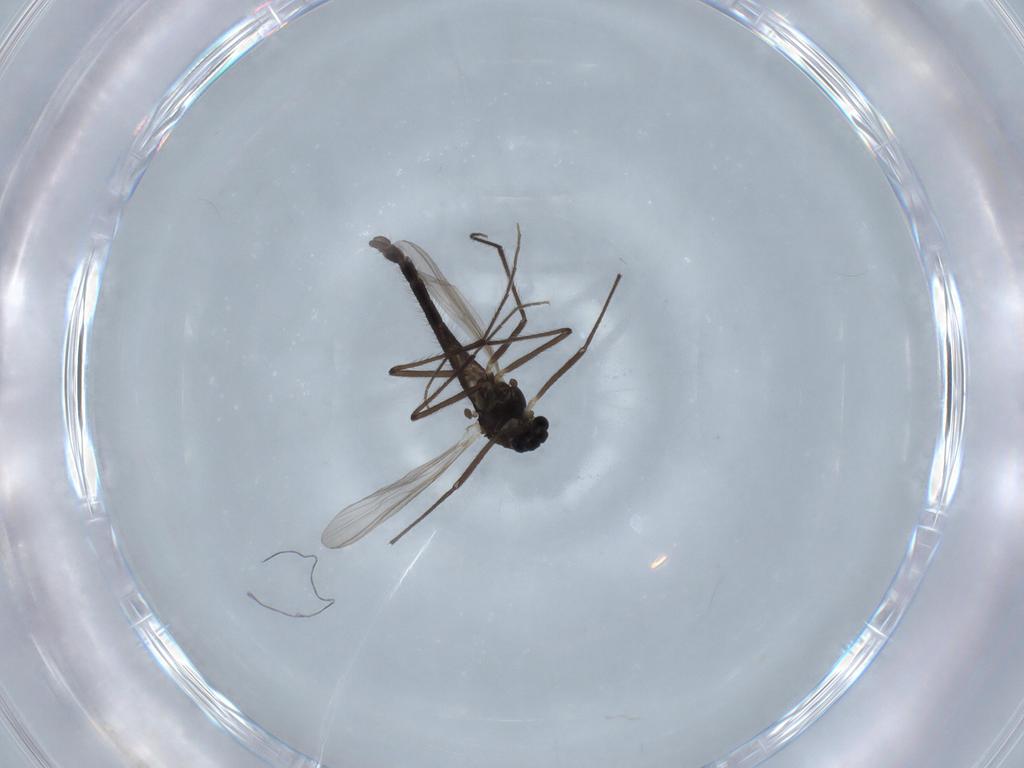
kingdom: Animalia
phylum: Arthropoda
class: Insecta
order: Diptera
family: Chironomidae
